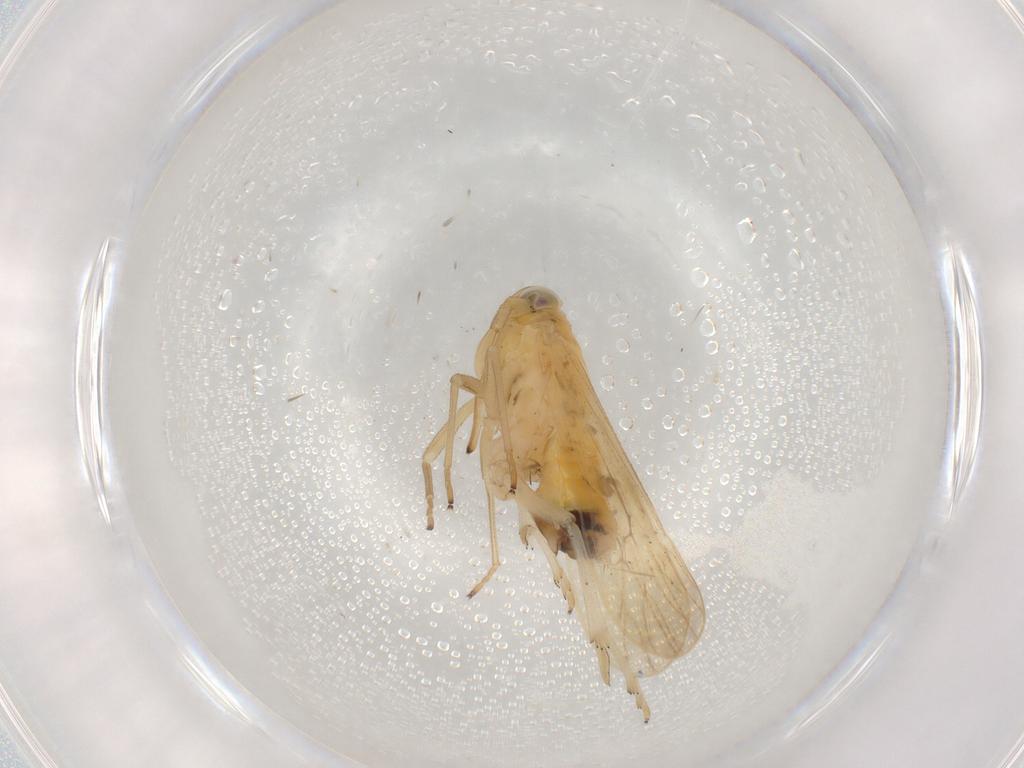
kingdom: Animalia
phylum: Arthropoda
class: Insecta
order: Hemiptera
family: Delphacidae
